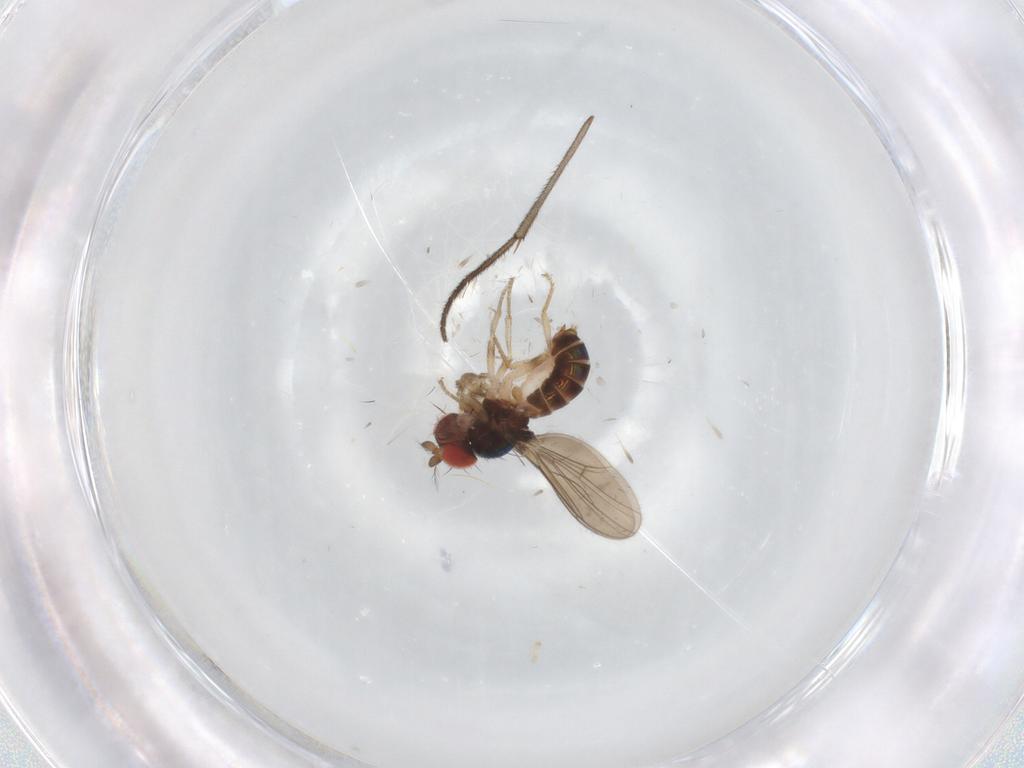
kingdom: Animalia
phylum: Arthropoda
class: Insecta
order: Diptera
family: Drosophilidae
